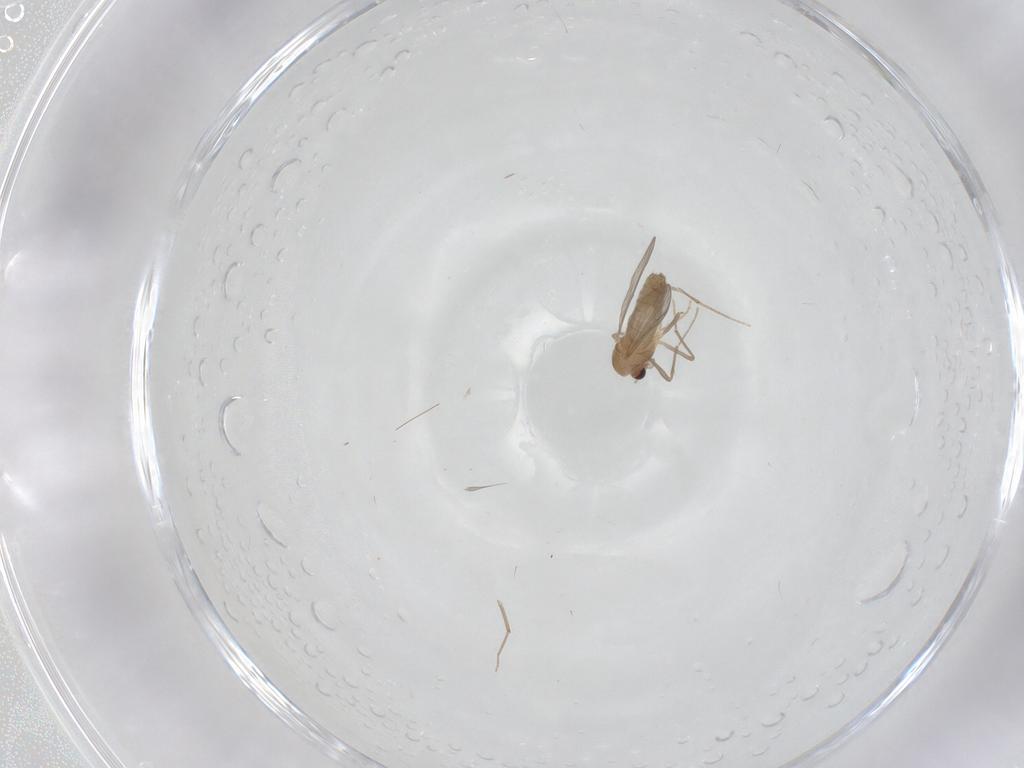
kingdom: Animalia
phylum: Arthropoda
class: Insecta
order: Diptera
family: Chironomidae
